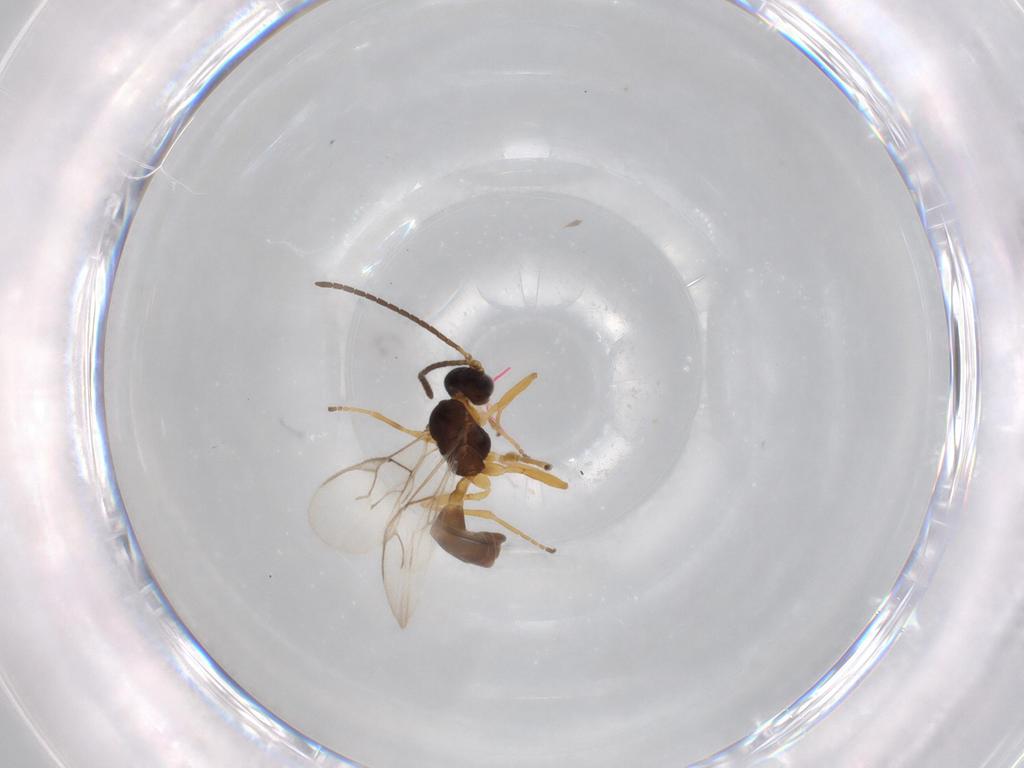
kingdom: Animalia
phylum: Arthropoda
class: Insecta
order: Hymenoptera
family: Braconidae
